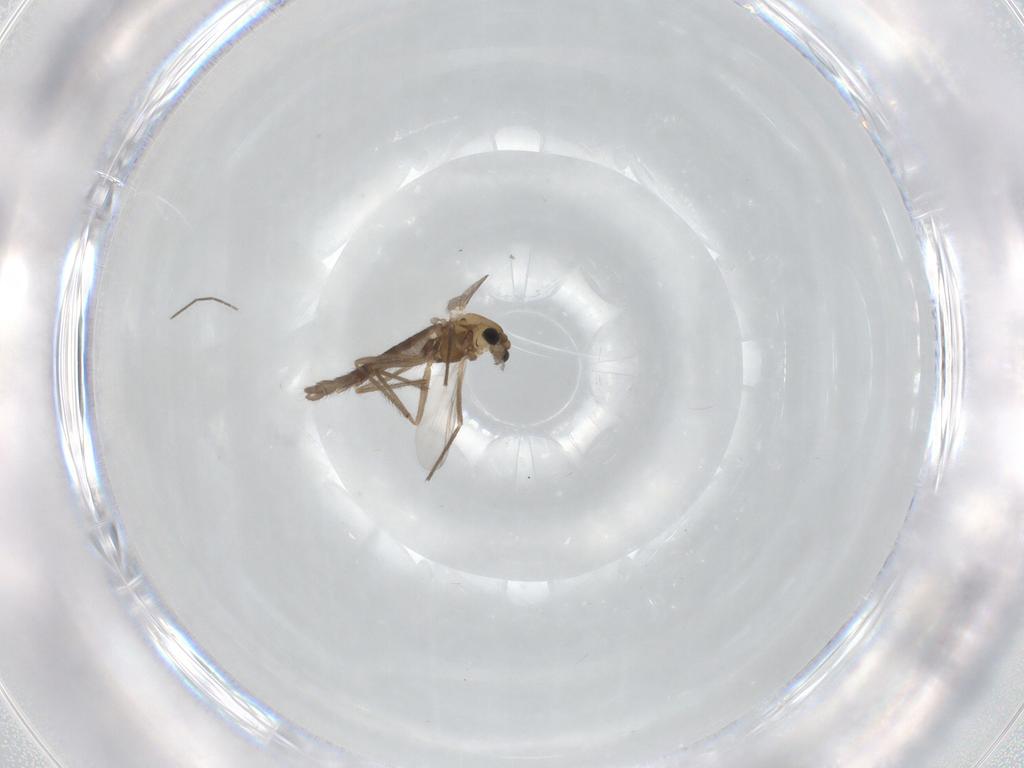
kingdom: Animalia
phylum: Arthropoda
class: Insecta
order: Diptera
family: Chironomidae
